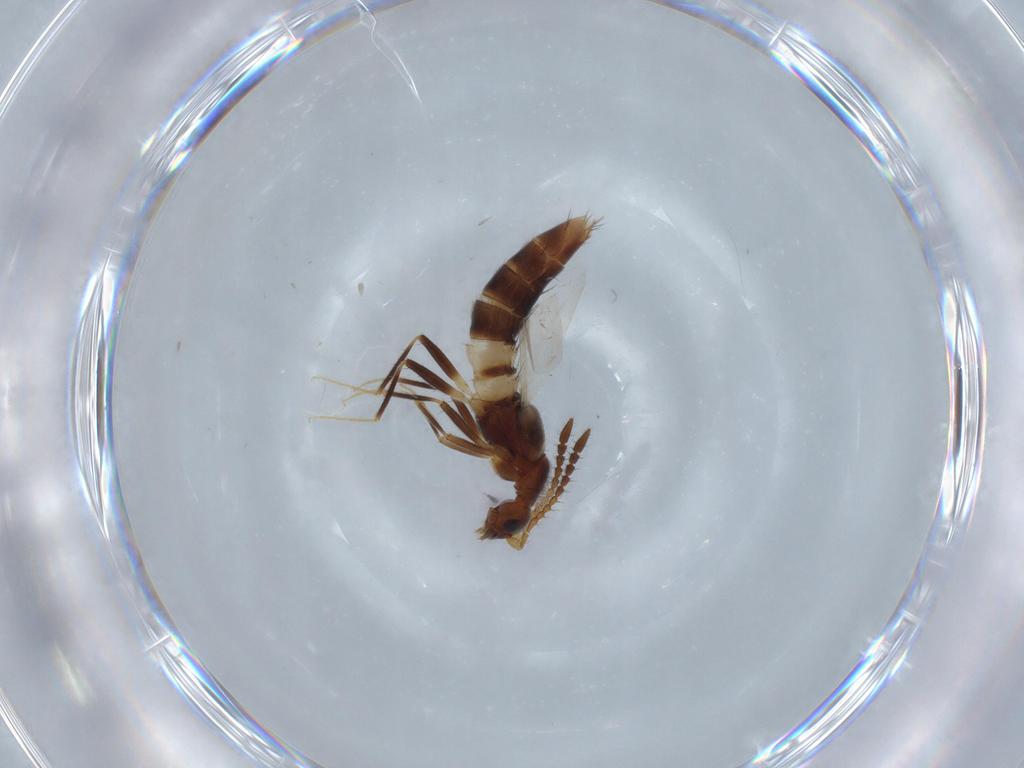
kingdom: Animalia
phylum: Arthropoda
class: Insecta
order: Coleoptera
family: Staphylinidae
